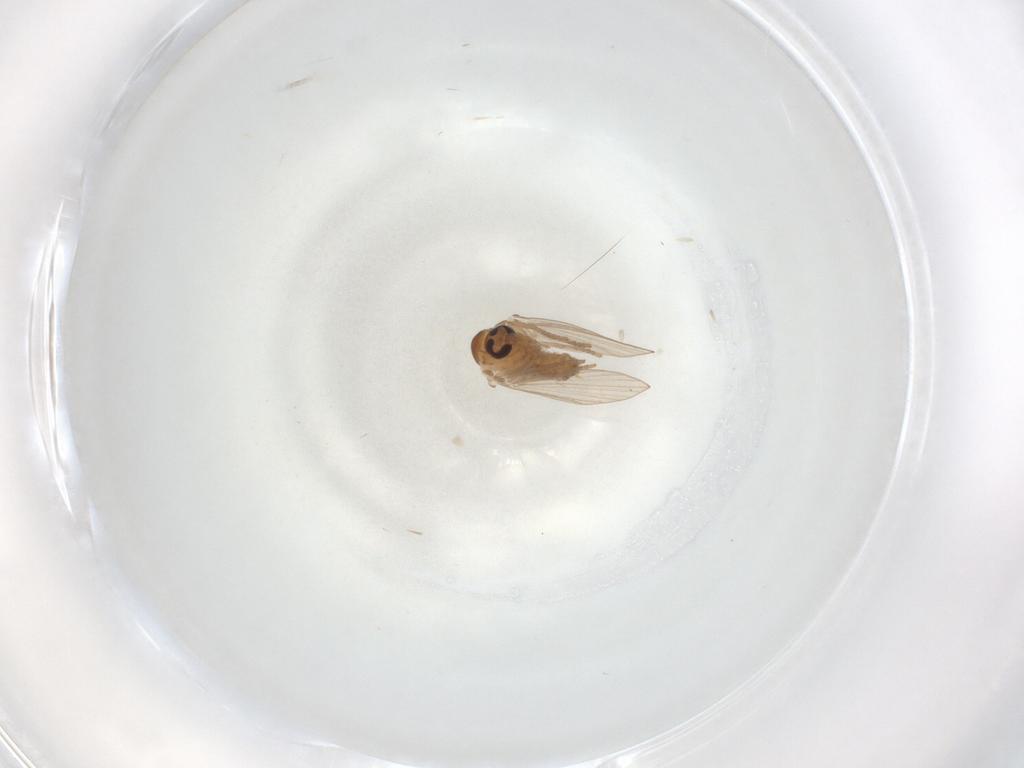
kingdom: Animalia
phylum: Arthropoda
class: Insecta
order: Diptera
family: Psychodidae
